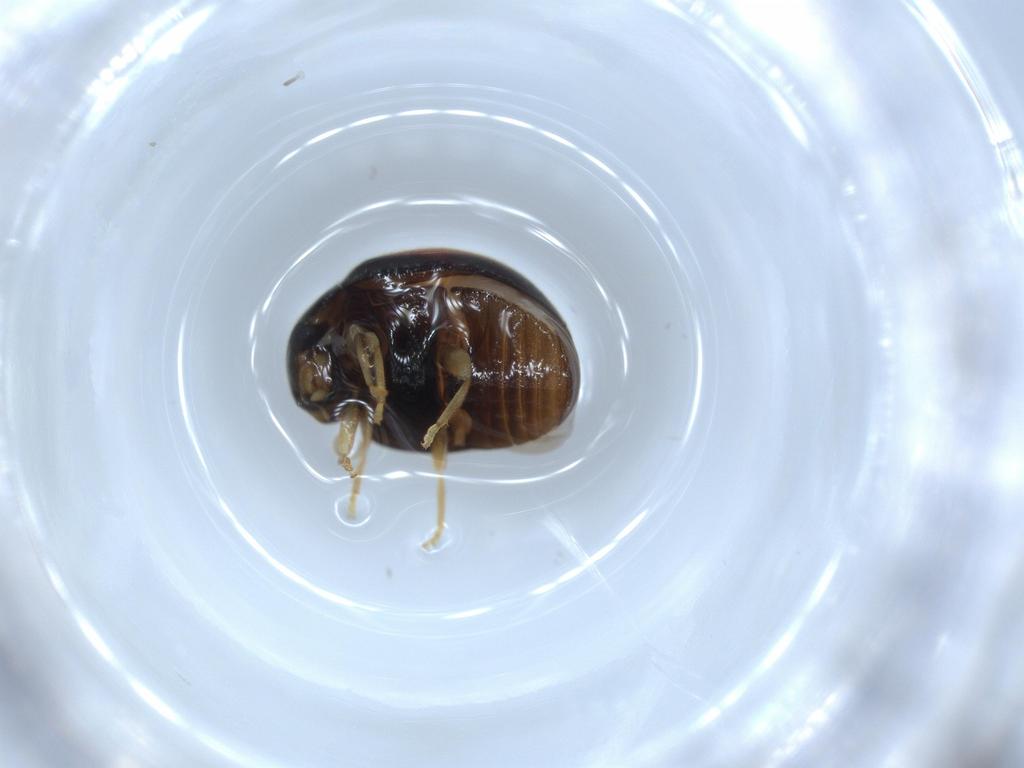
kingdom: Animalia
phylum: Arthropoda
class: Insecta
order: Coleoptera
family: Coccinellidae
